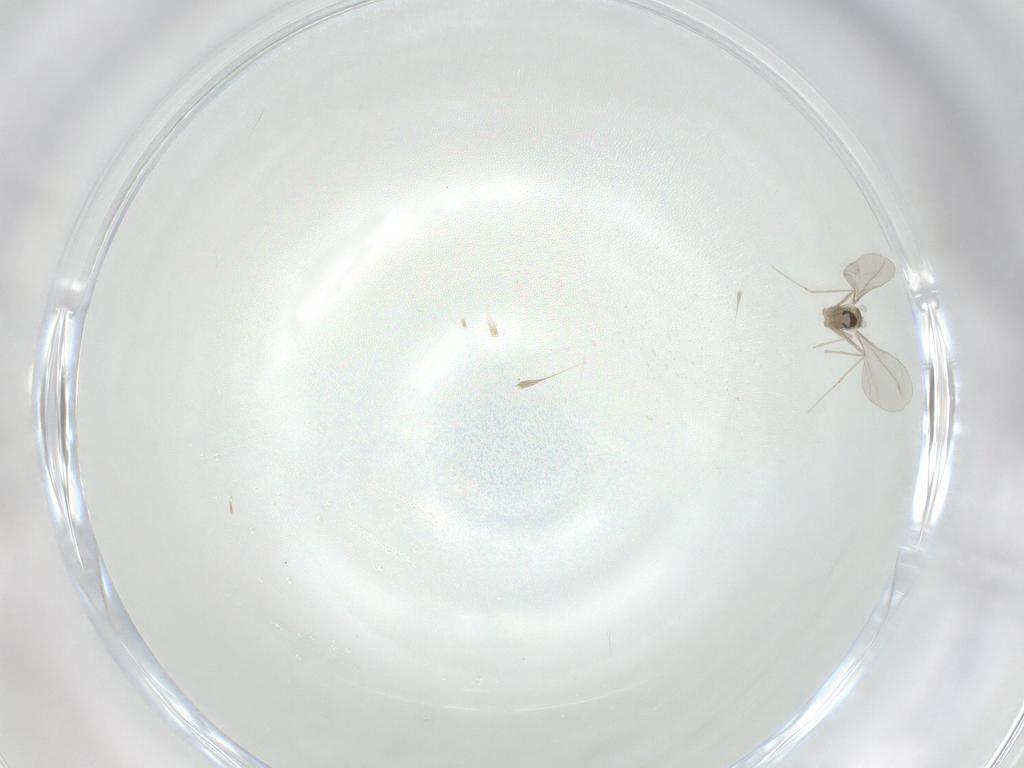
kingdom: Animalia
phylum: Arthropoda
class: Insecta
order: Diptera
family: Cecidomyiidae
